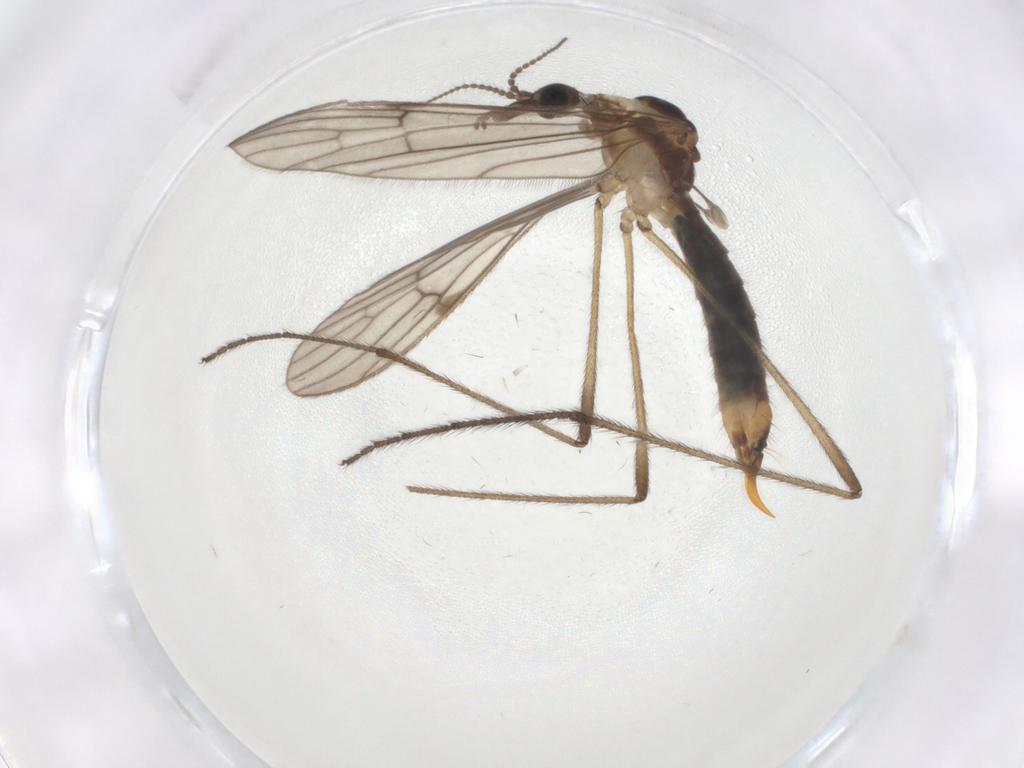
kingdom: Animalia
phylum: Arthropoda
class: Insecta
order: Diptera
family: Limoniidae
